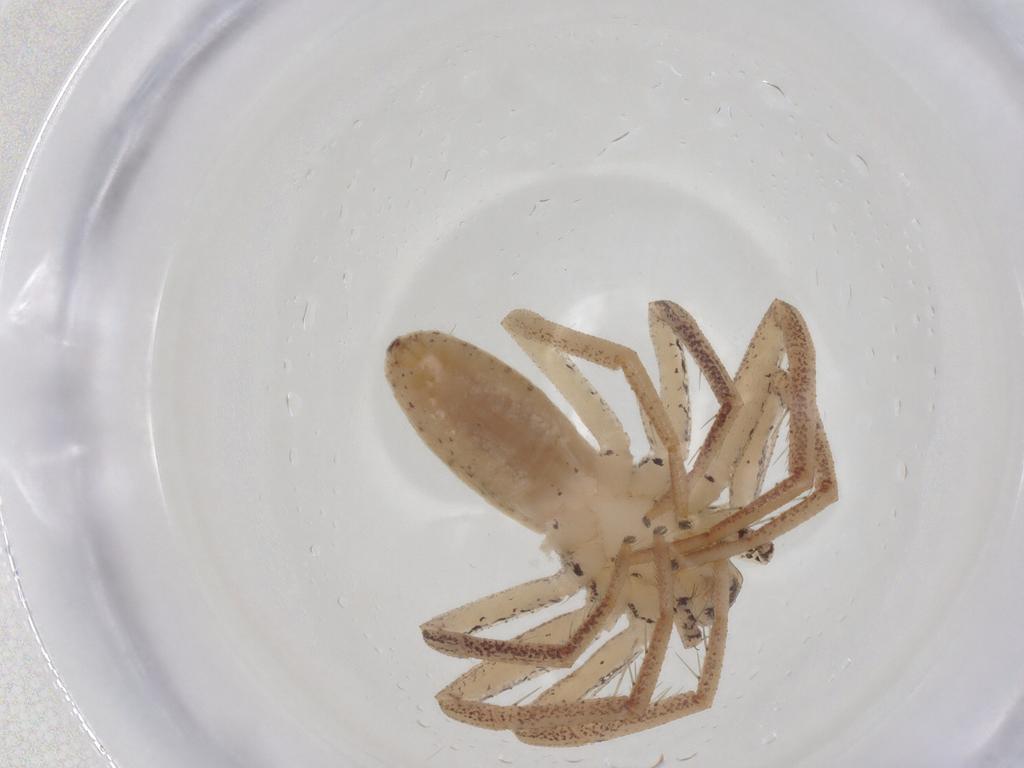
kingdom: Animalia
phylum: Arthropoda
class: Arachnida
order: Araneae
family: Philodromidae
